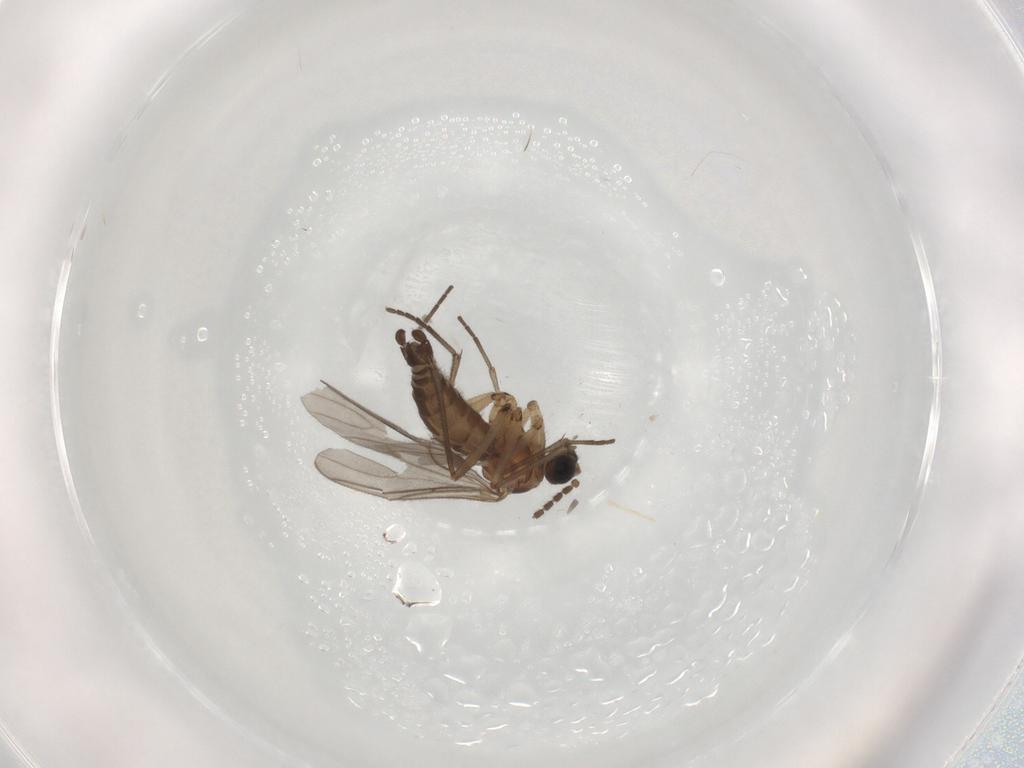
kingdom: Animalia
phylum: Arthropoda
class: Insecta
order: Diptera
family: Sciaridae
